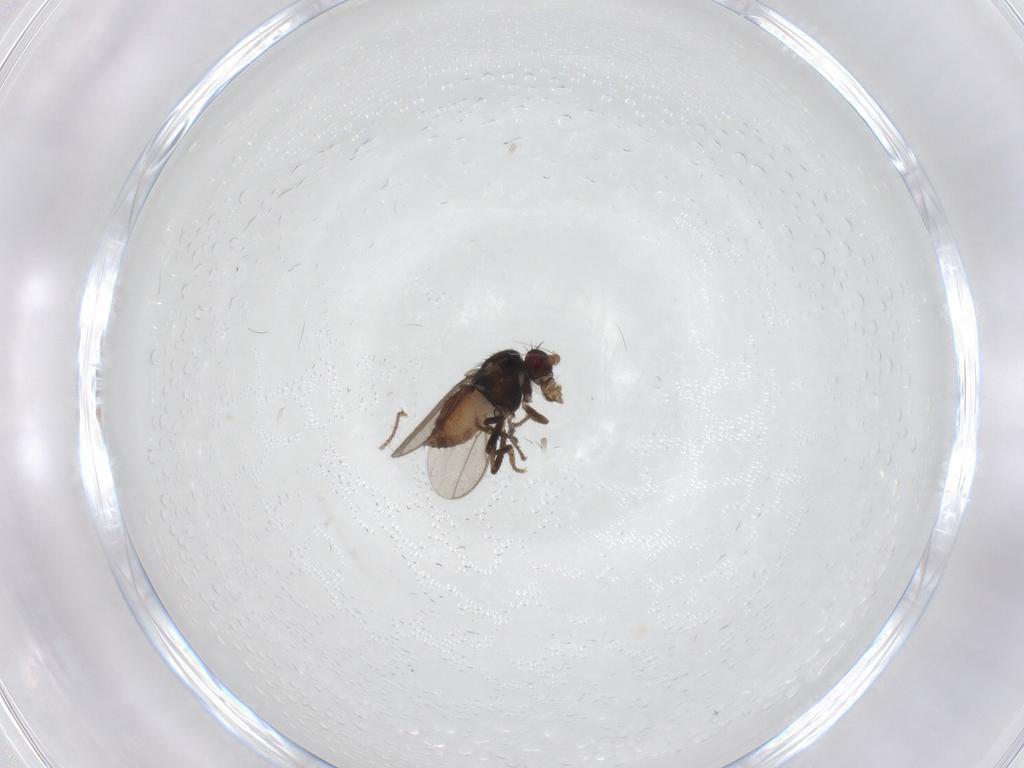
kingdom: Animalia
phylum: Arthropoda
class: Insecta
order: Diptera
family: Sphaeroceridae
